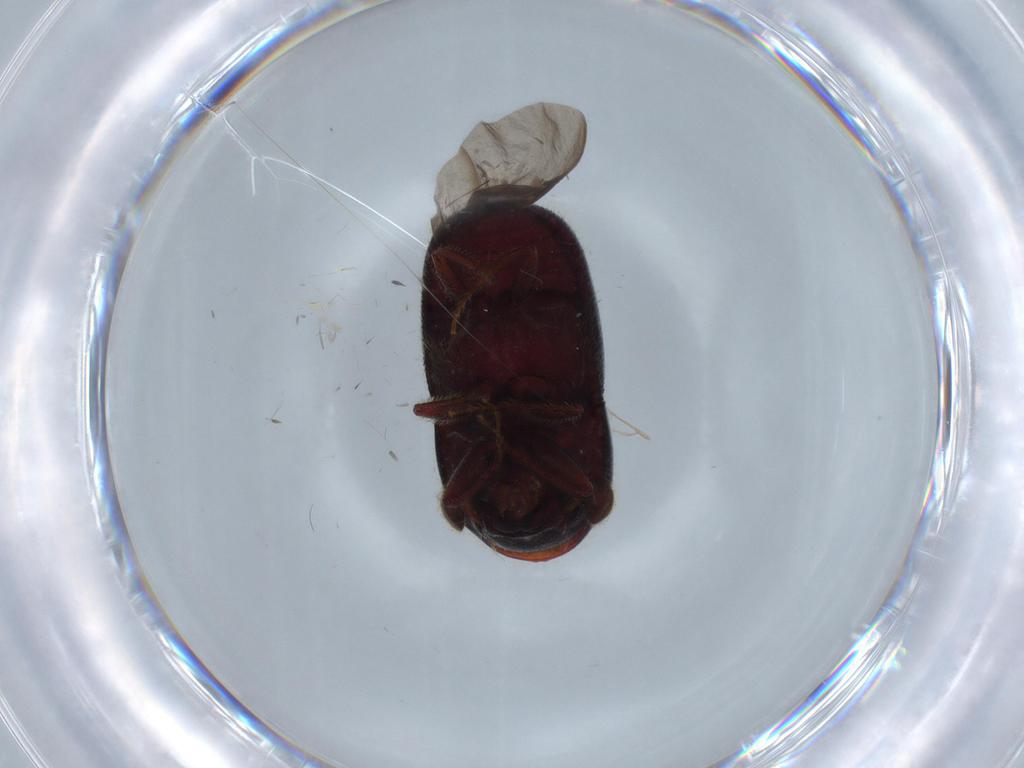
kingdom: Animalia
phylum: Arthropoda
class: Insecta
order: Coleoptera
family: Curculionidae
